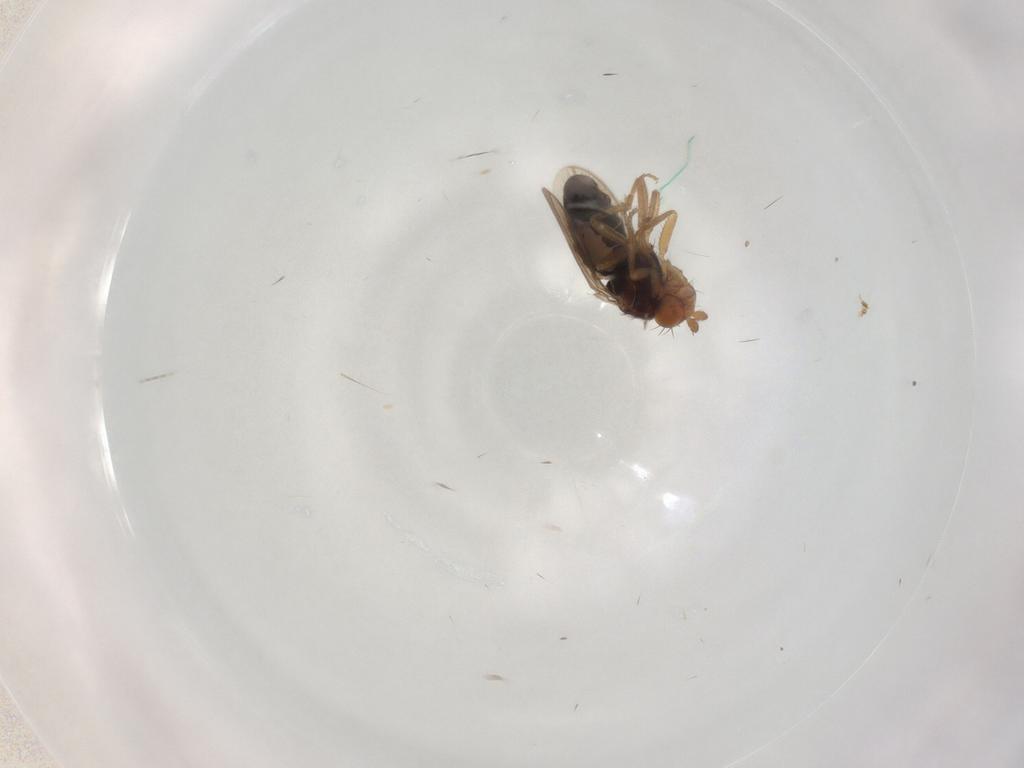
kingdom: Animalia
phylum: Arthropoda
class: Insecta
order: Diptera
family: Sphaeroceridae
